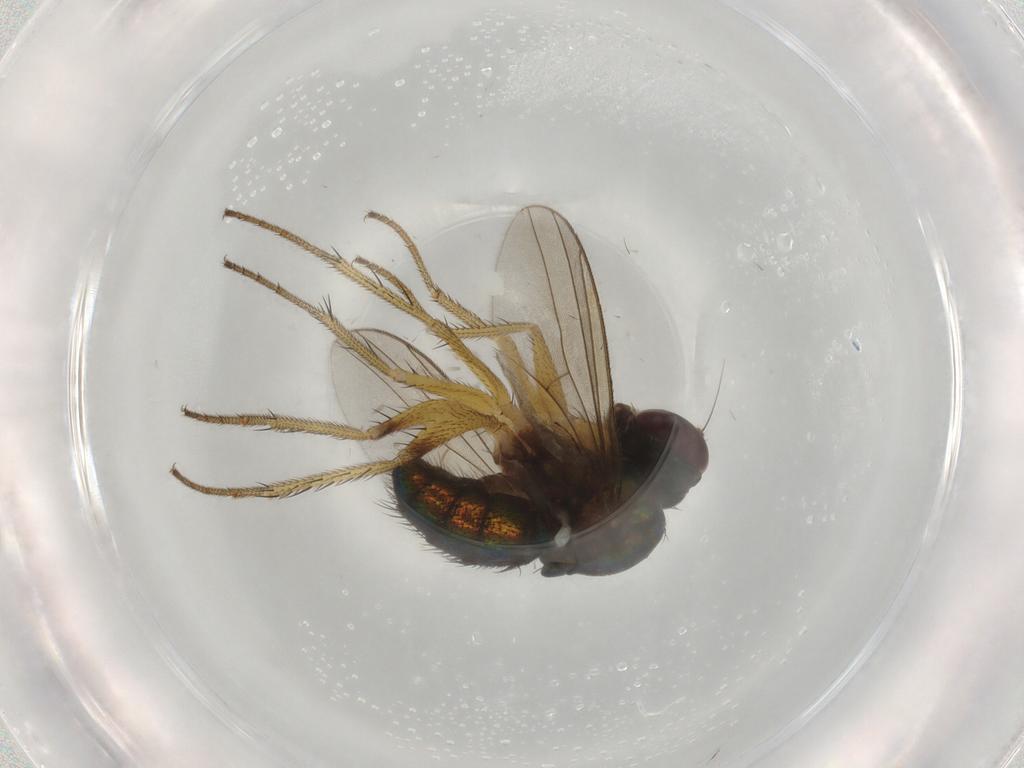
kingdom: Animalia
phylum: Arthropoda
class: Insecta
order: Diptera
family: Dolichopodidae
